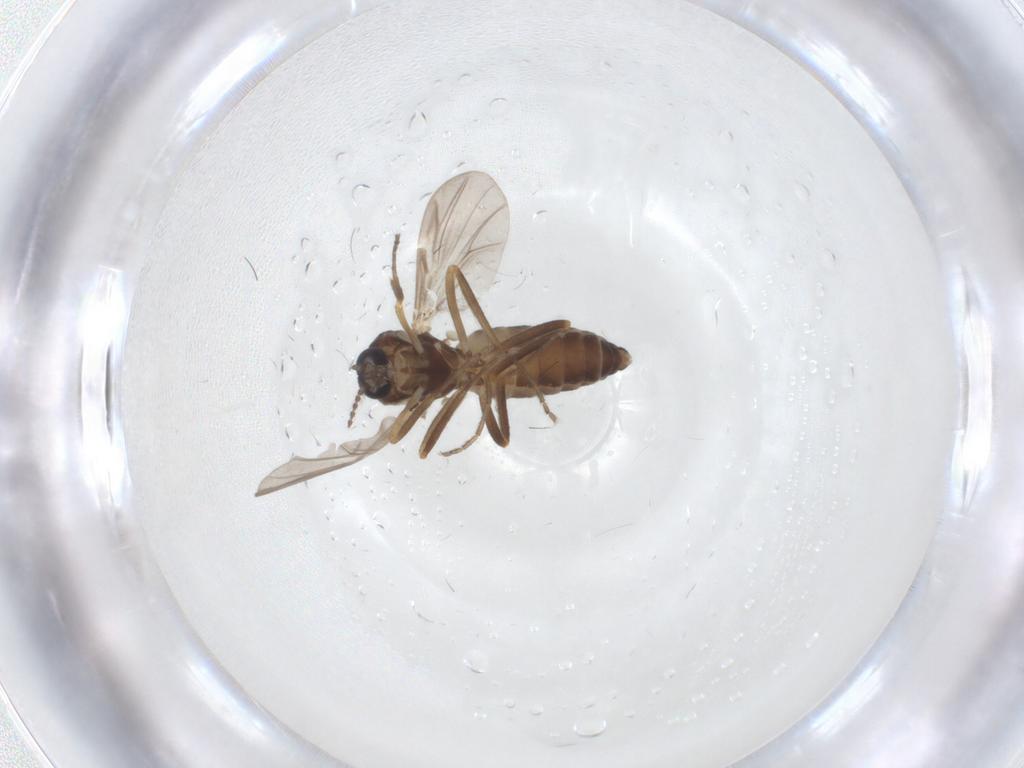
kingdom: Animalia
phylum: Arthropoda
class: Insecta
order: Diptera
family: Ceratopogonidae
